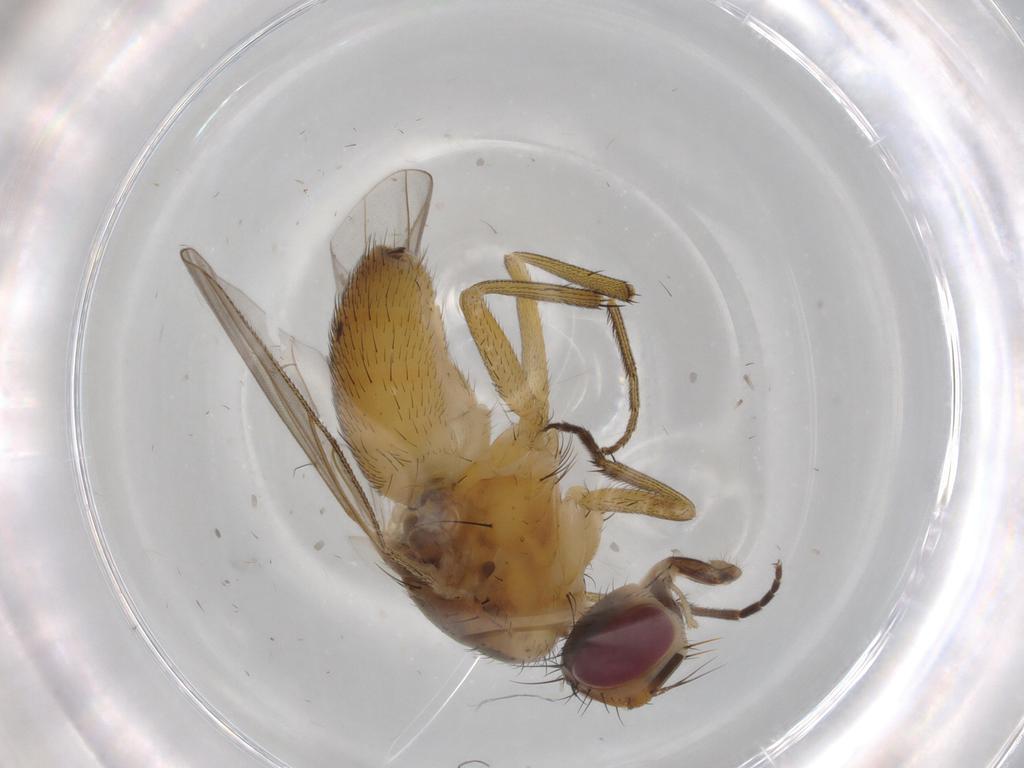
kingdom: Animalia
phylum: Arthropoda
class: Insecta
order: Diptera
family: Muscidae
